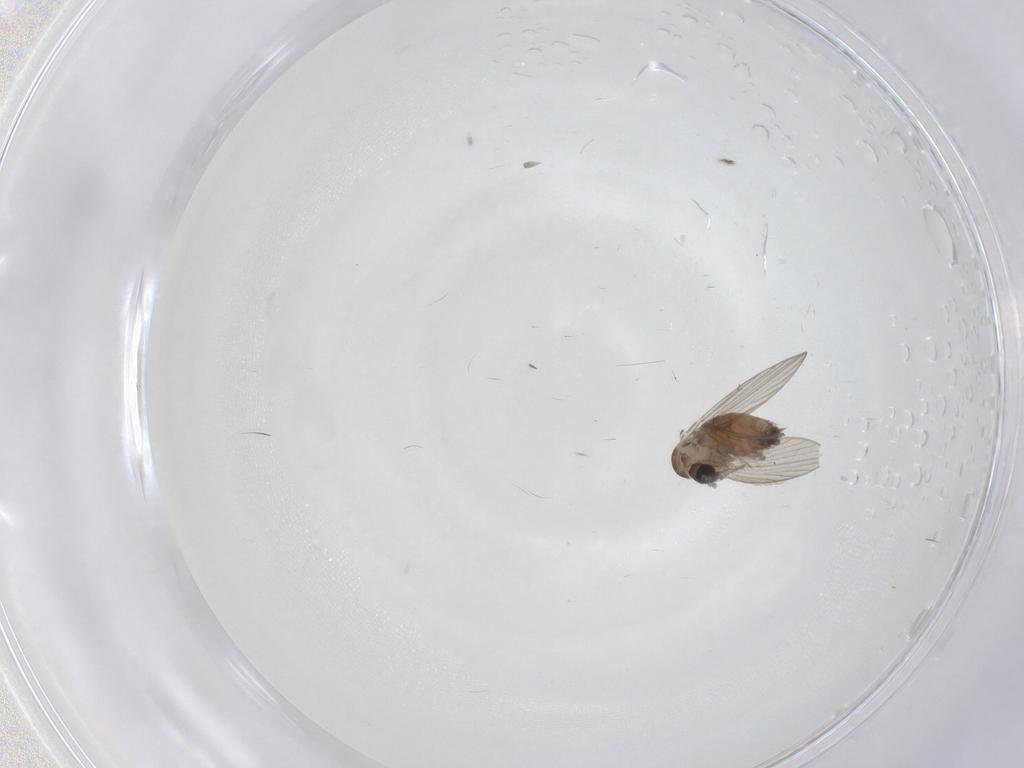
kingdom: Animalia
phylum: Arthropoda
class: Insecta
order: Diptera
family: Psychodidae
